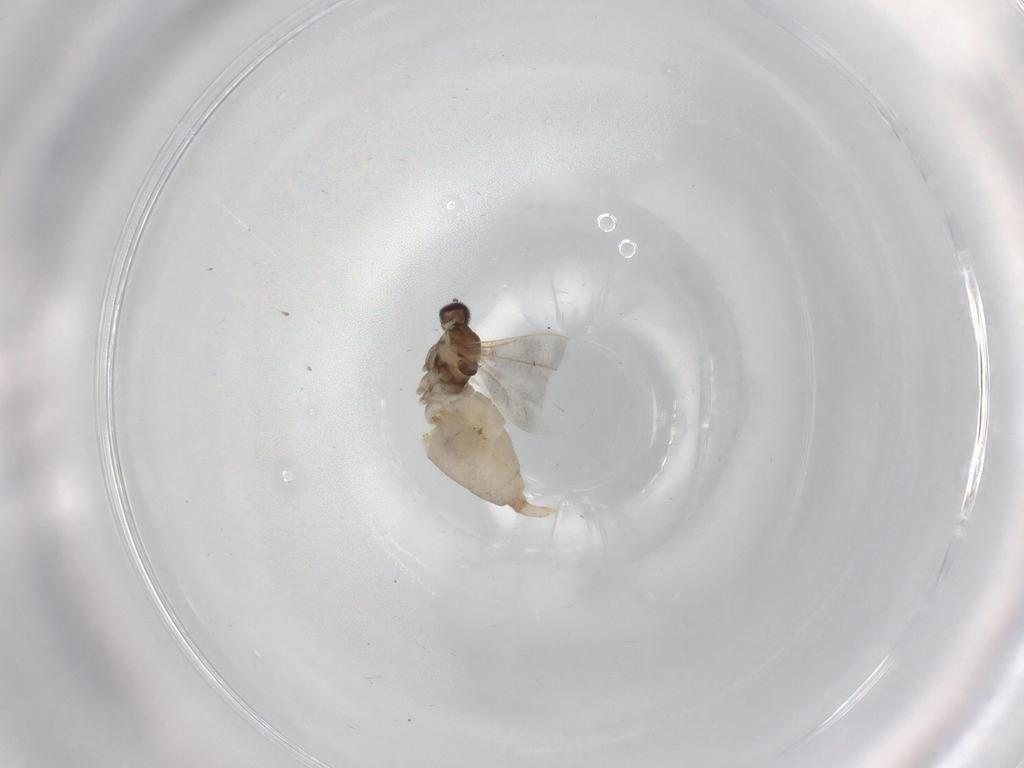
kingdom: Animalia
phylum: Arthropoda
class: Insecta
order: Diptera
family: Cecidomyiidae
